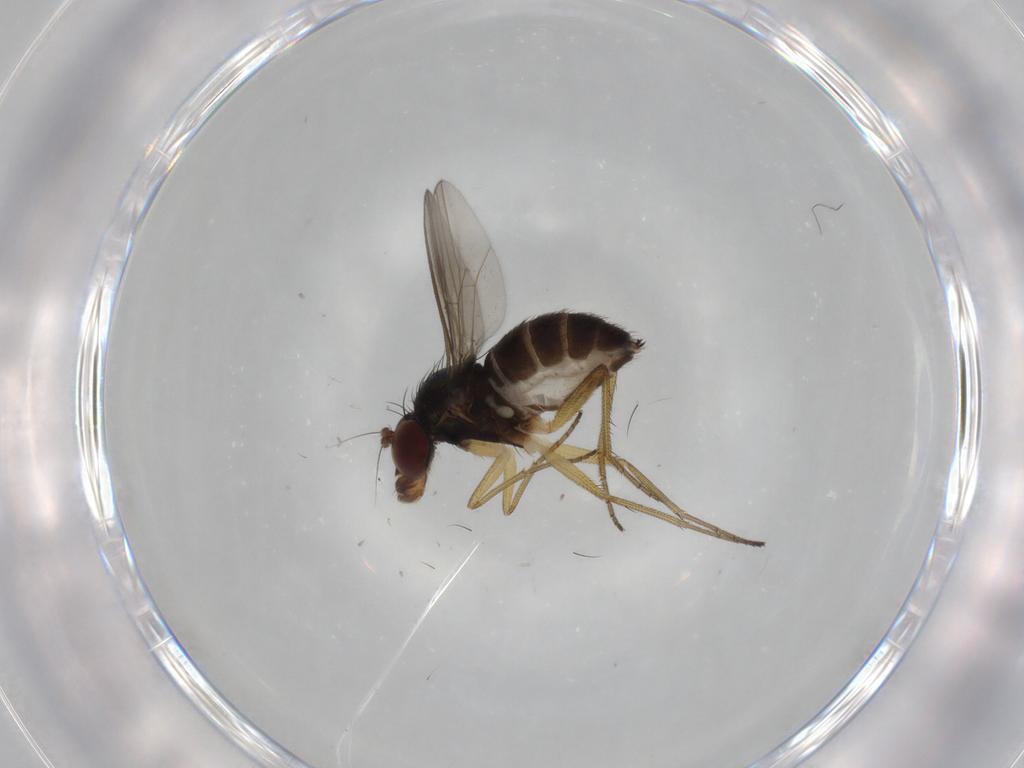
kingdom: Animalia
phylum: Arthropoda
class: Insecta
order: Diptera
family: Dolichopodidae
